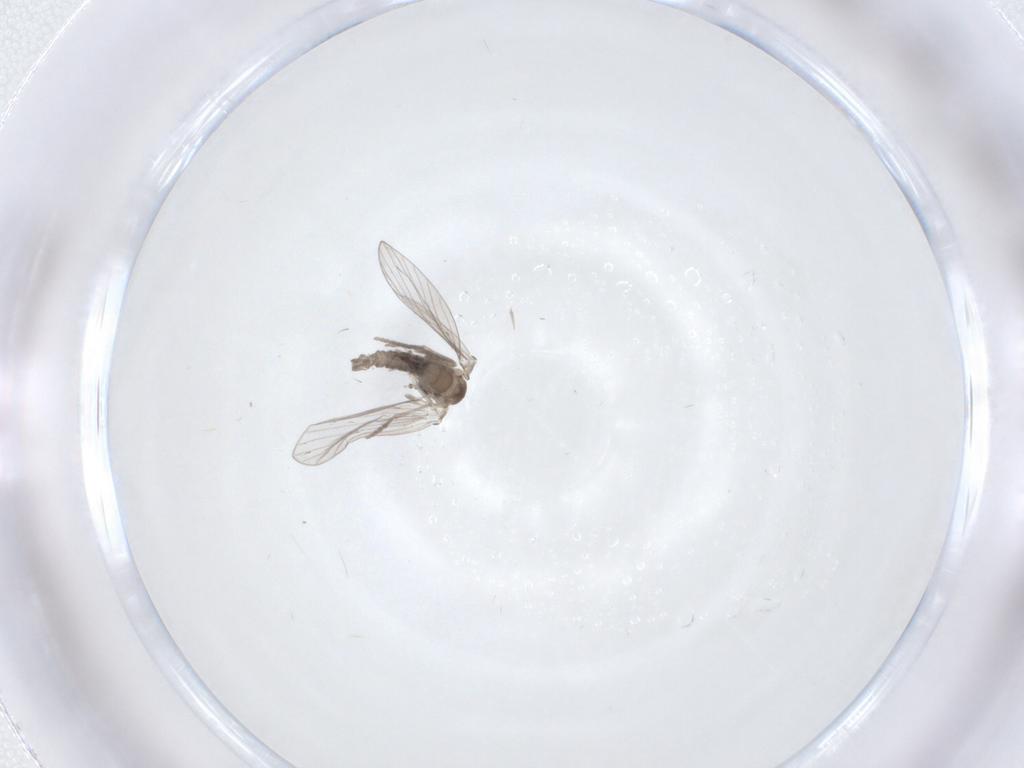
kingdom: Animalia
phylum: Arthropoda
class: Insecta
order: Diptera
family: Psychodidae
